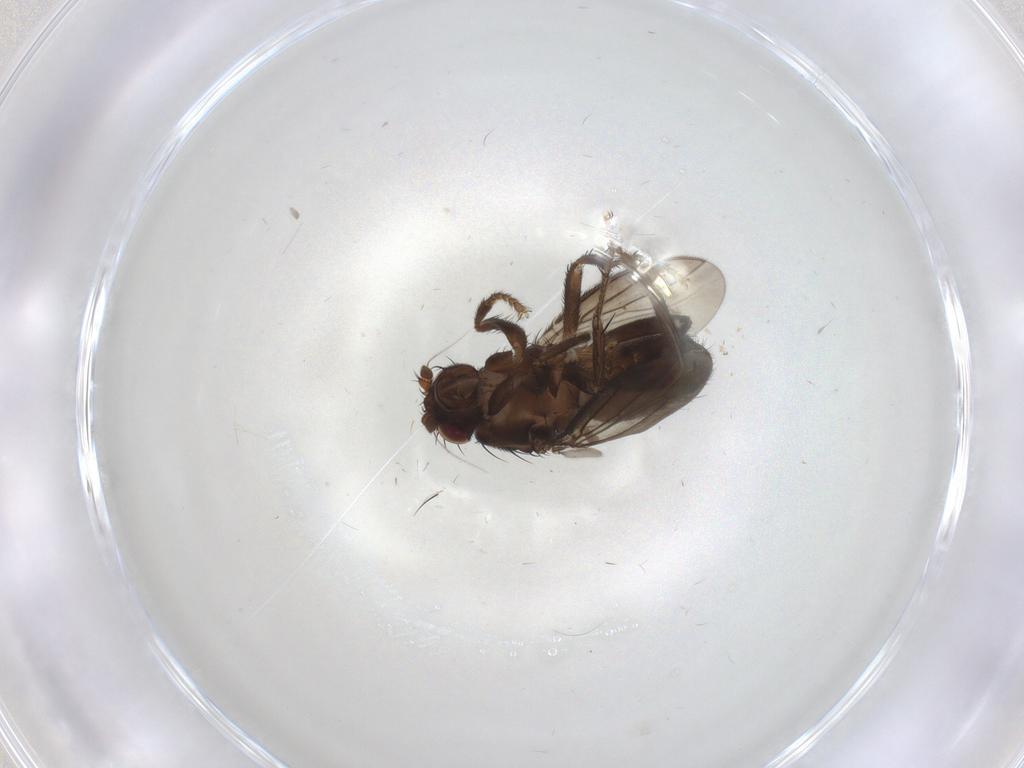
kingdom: Animalia
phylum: Arthropoda
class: Insecta
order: Diptera
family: Sphaeroceridae
